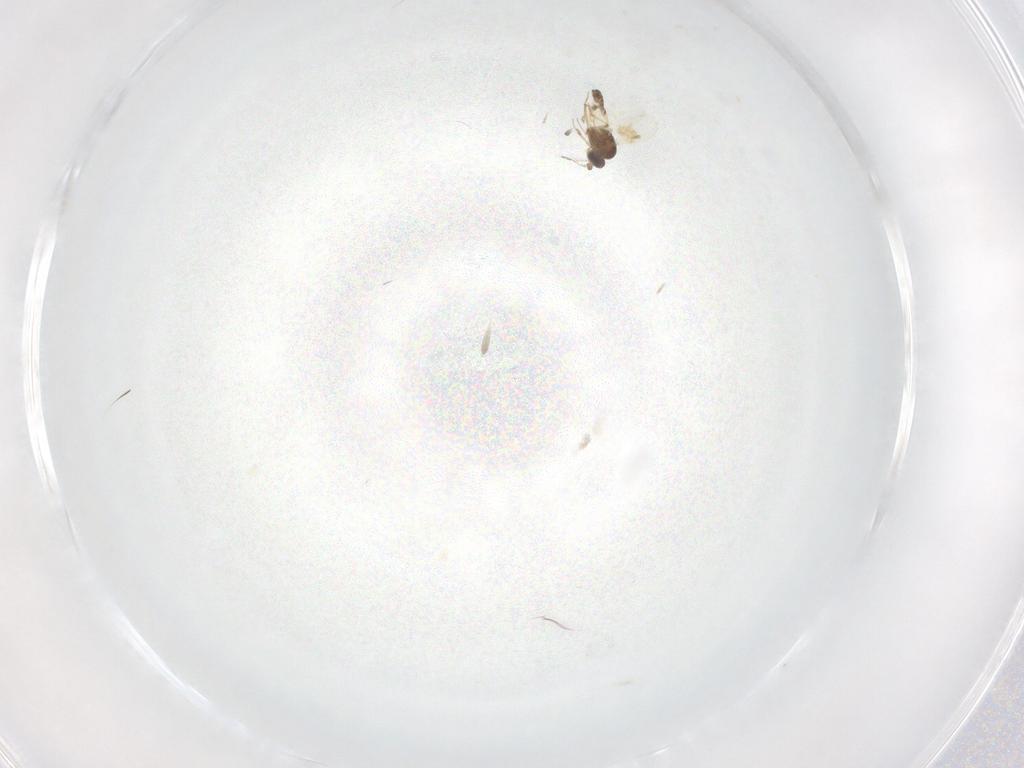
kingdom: Animalia
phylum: Arthropoda
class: Insecta
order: Diptera
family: Ceratopogonidae
